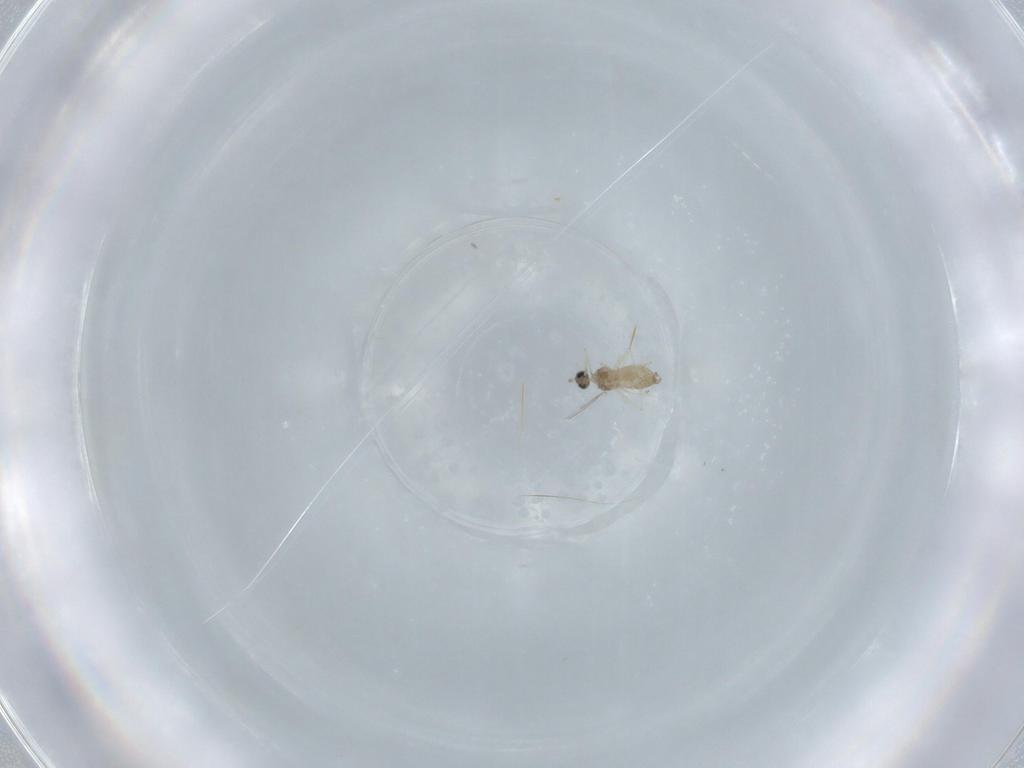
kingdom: Animalia
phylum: Arthropoda
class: Insecta
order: Diptera
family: Cecidomyiidae
